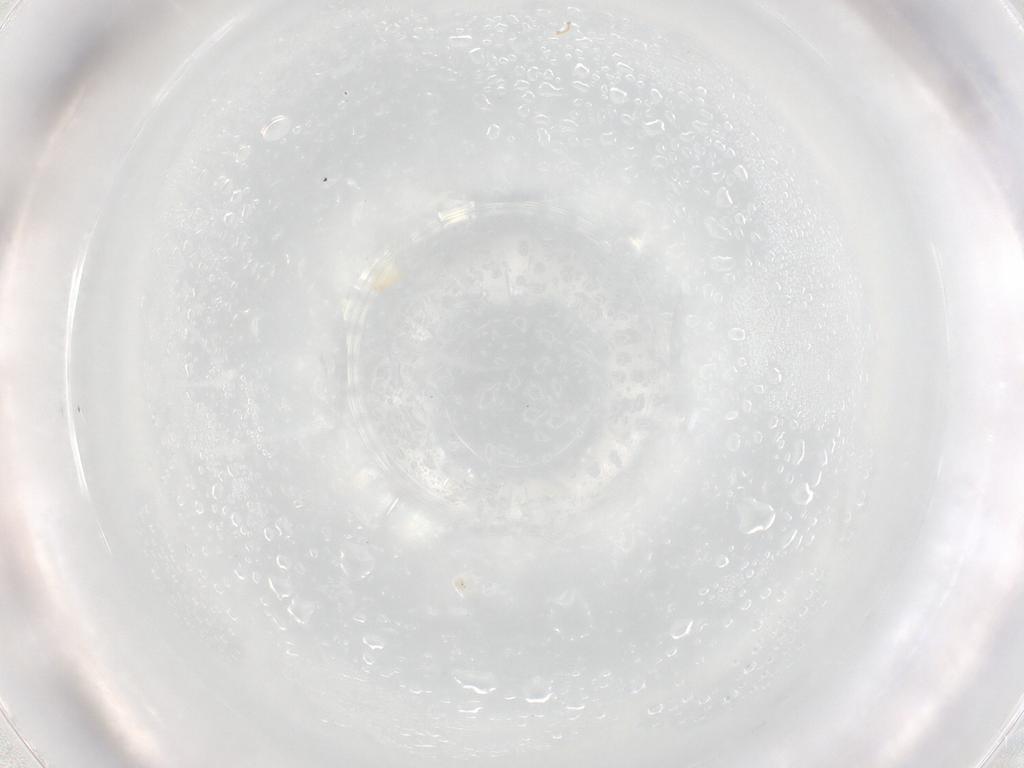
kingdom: Animalia
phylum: Arthropoda
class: Arachnida
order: Trombidiformes
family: Pygmephoridae
